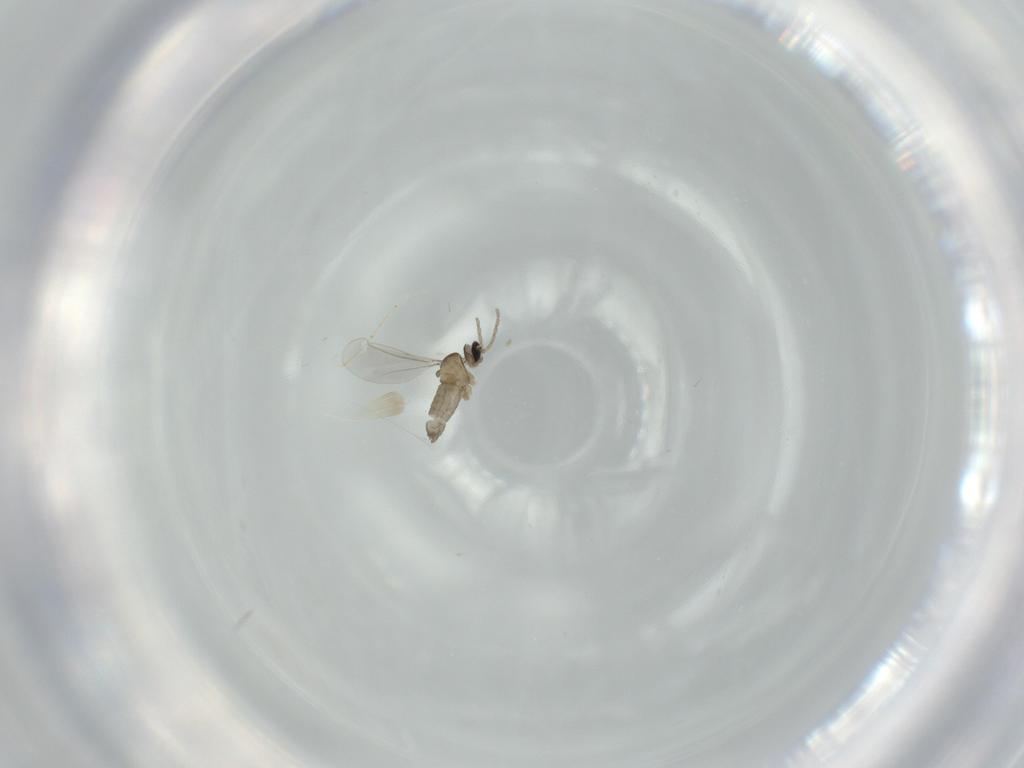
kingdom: Animalia
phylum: Arthropoda
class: Insecta
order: Diptera
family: Cecidomyiidae
